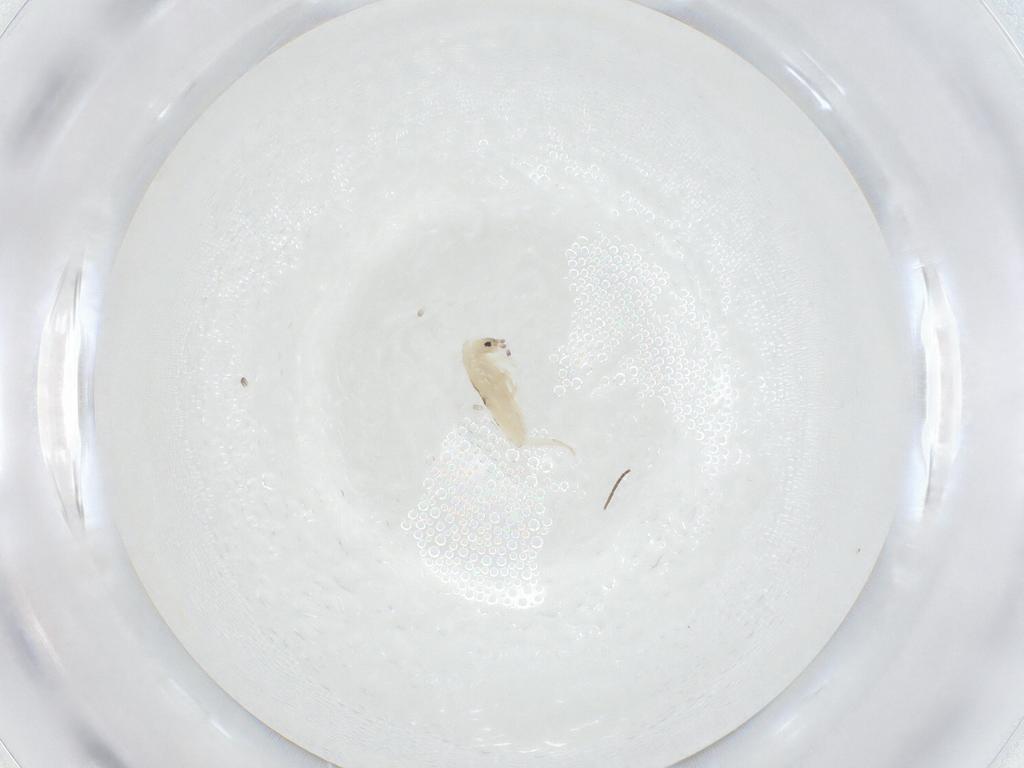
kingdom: Animalia
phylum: Arthropoda
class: Collembola
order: Entomobryomorpha
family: Entomobryidae
